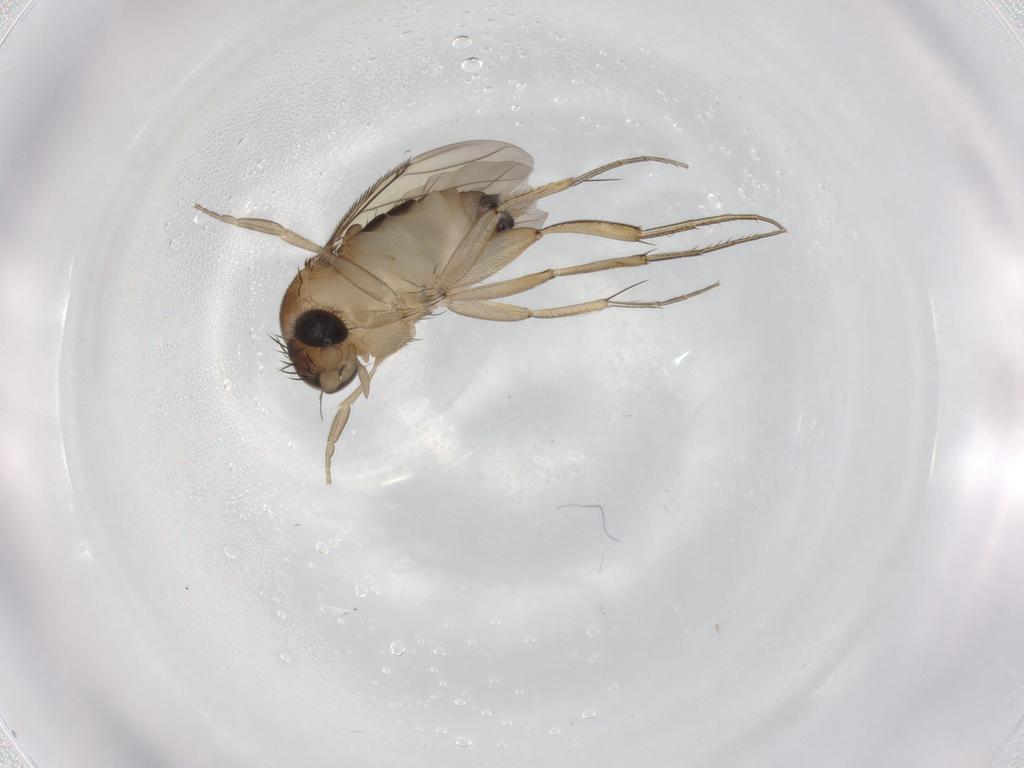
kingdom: Animalia
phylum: Arthropoda
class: Insecta
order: Diptera
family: Phoridae
